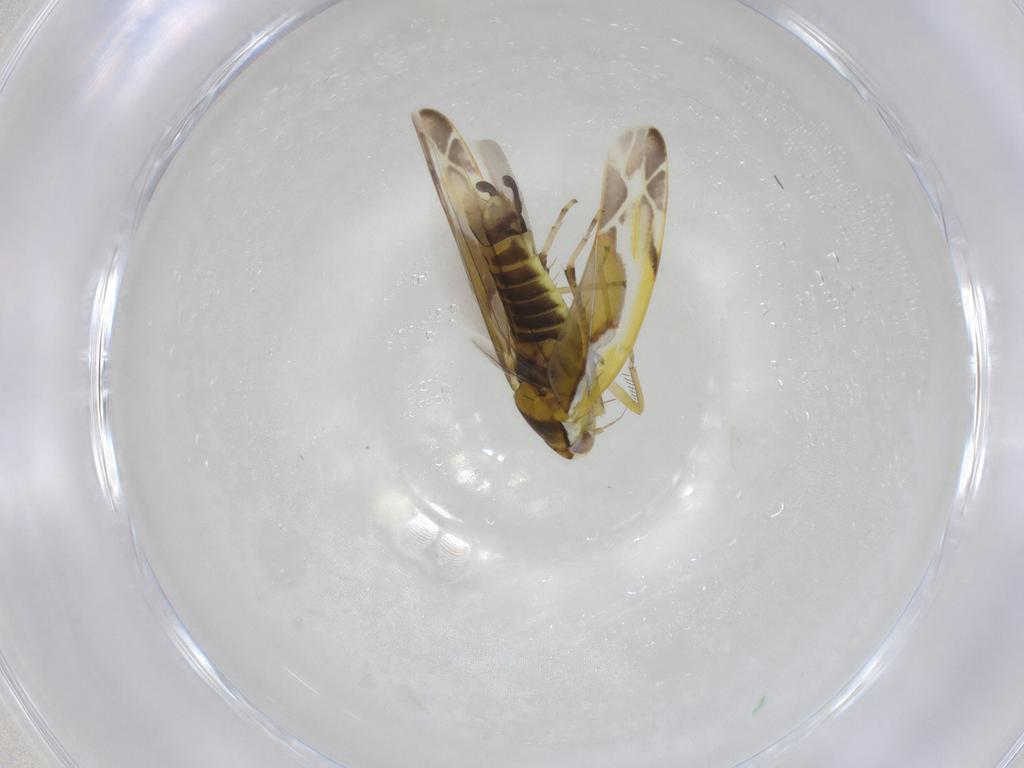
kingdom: Animalia
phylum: Arthropoda
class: Insecta
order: Hemiptera
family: Cicadellidae
